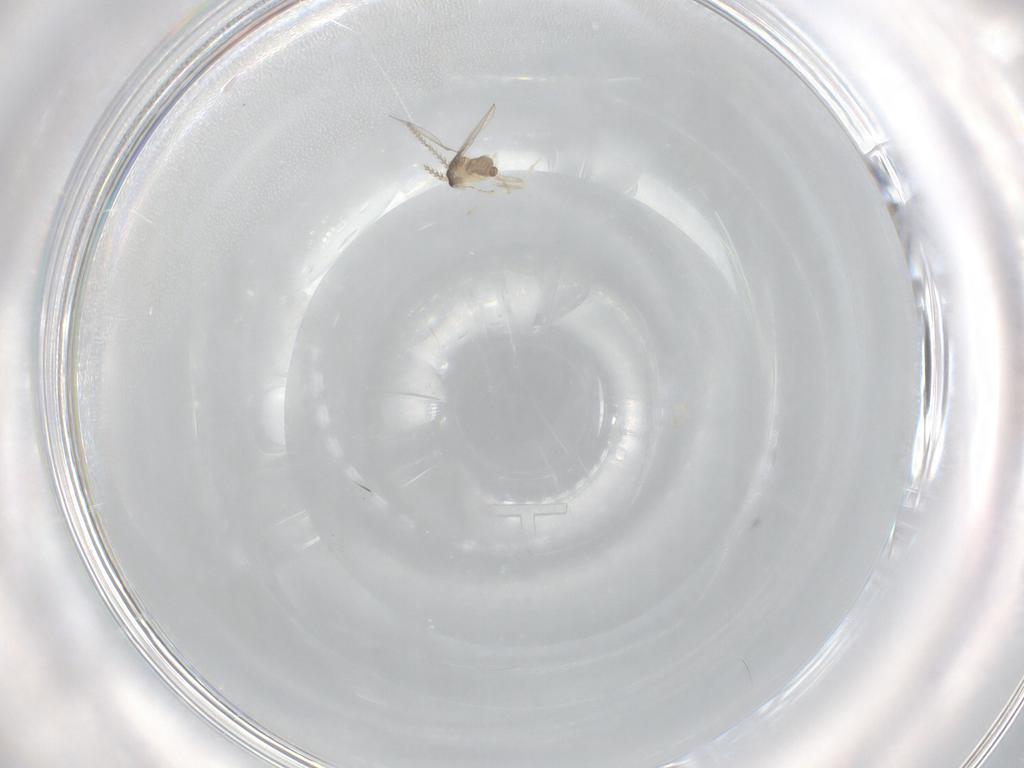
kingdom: Animalia
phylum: Arthropoda
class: Insecta
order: Diptera
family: Cecidomyiidae
